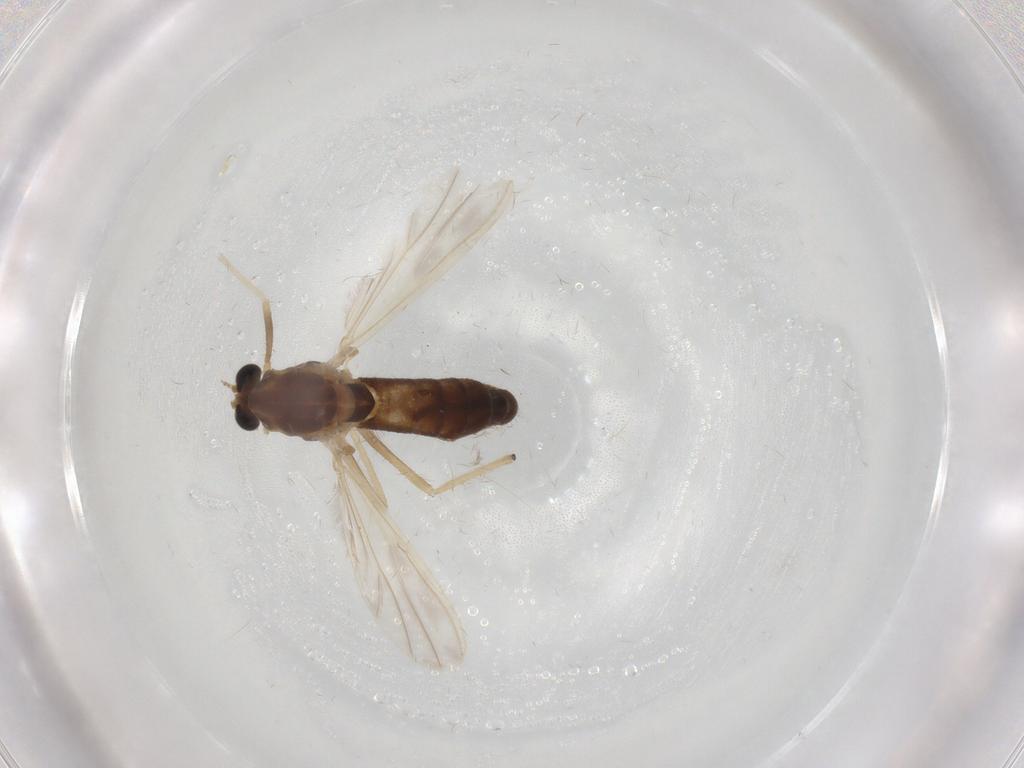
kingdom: Animalia
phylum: Arthropoda
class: Insecta
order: Diptera
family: Chironomidae
